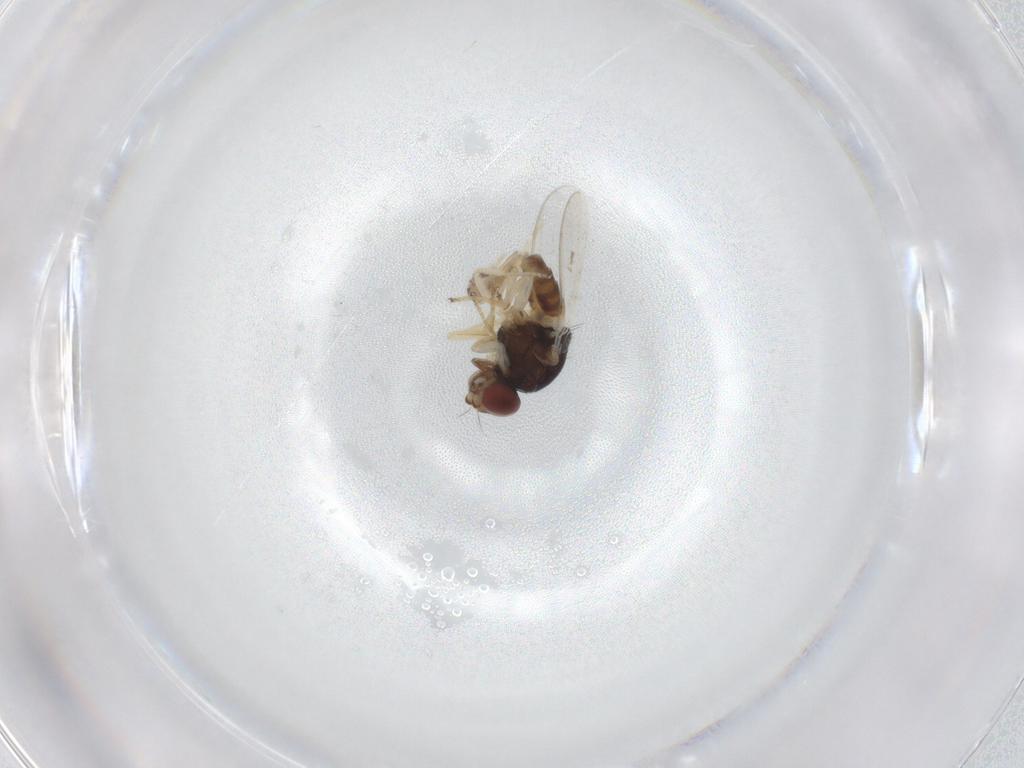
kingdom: Animalia
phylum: Arthropoda
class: Insecta
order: Diptera
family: Chloropidae
